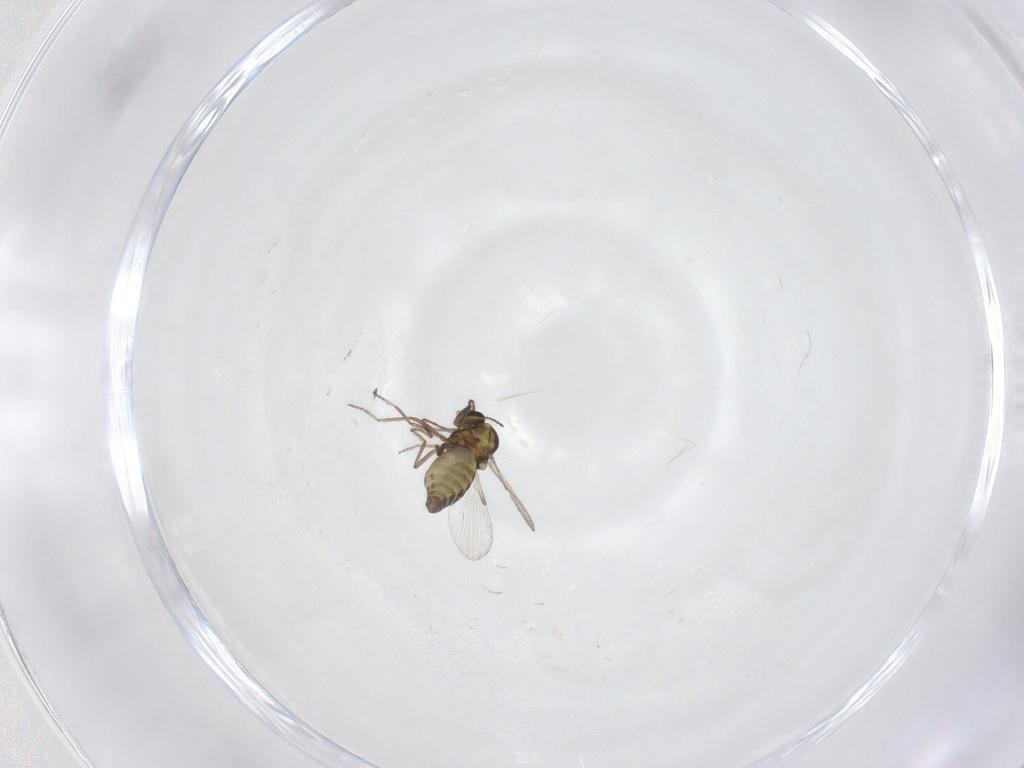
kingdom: Animalia
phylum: Arthropoda
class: Insecta
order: Diptera
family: Ceratopogonidae
